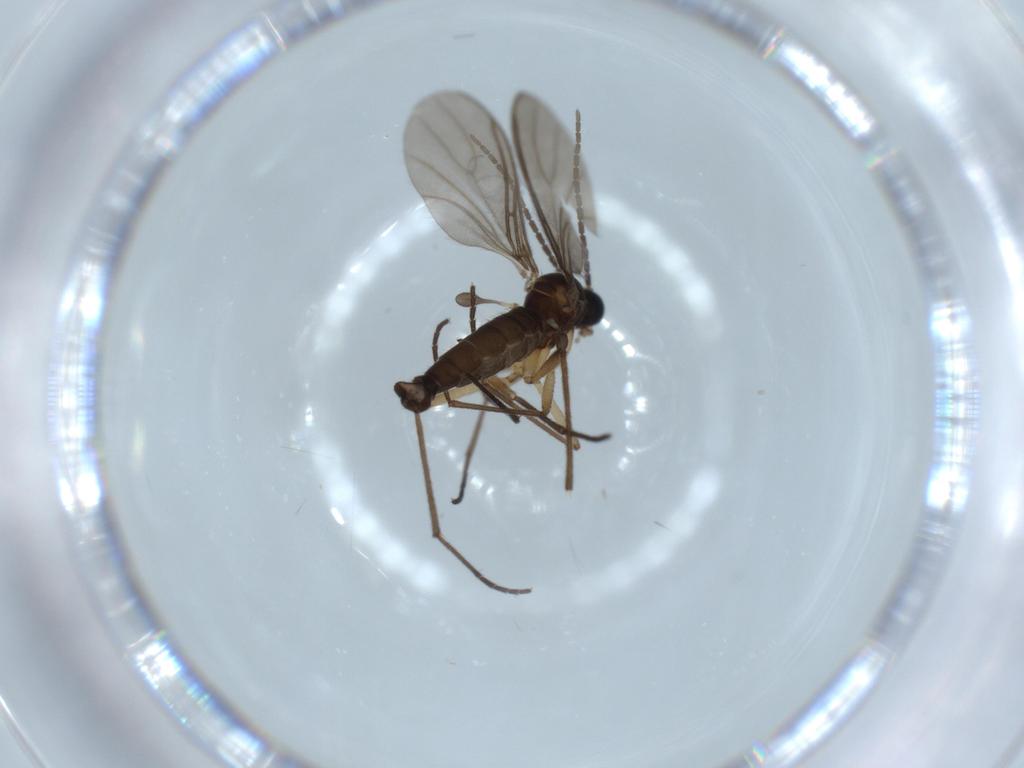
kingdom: Animalia
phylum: Arthropoda
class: Insecta
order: Diptera
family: Sciaridae
